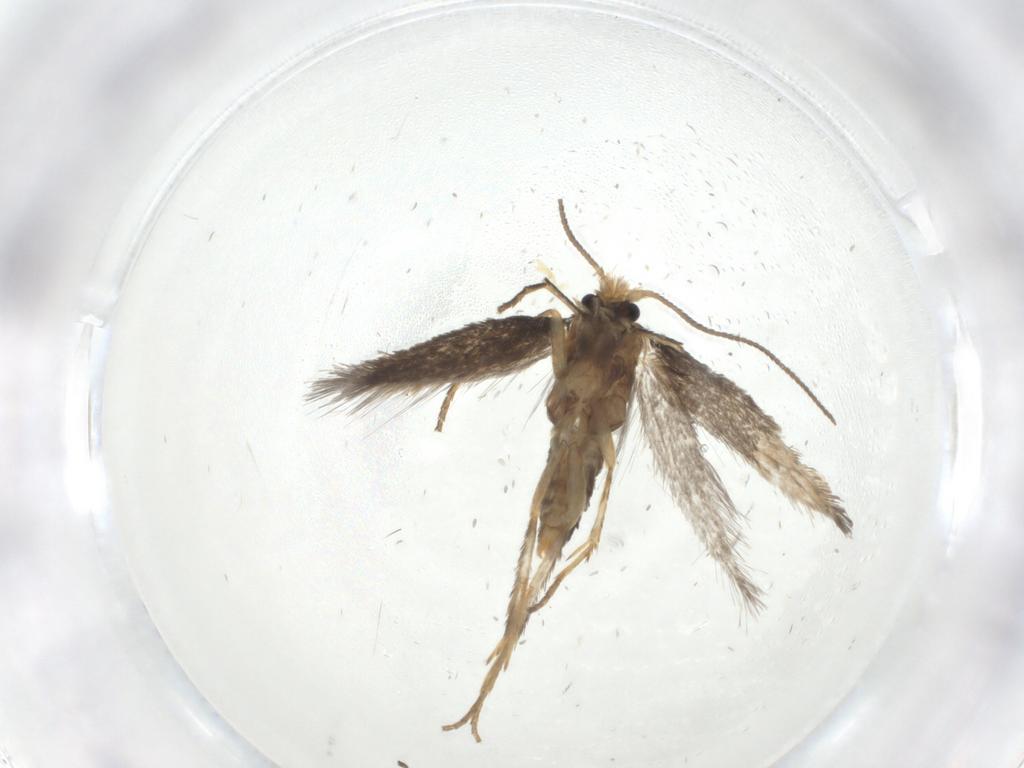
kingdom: Animalia
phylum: Arthropoda
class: Insecta
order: Lepidoptera
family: Nepticulidae
